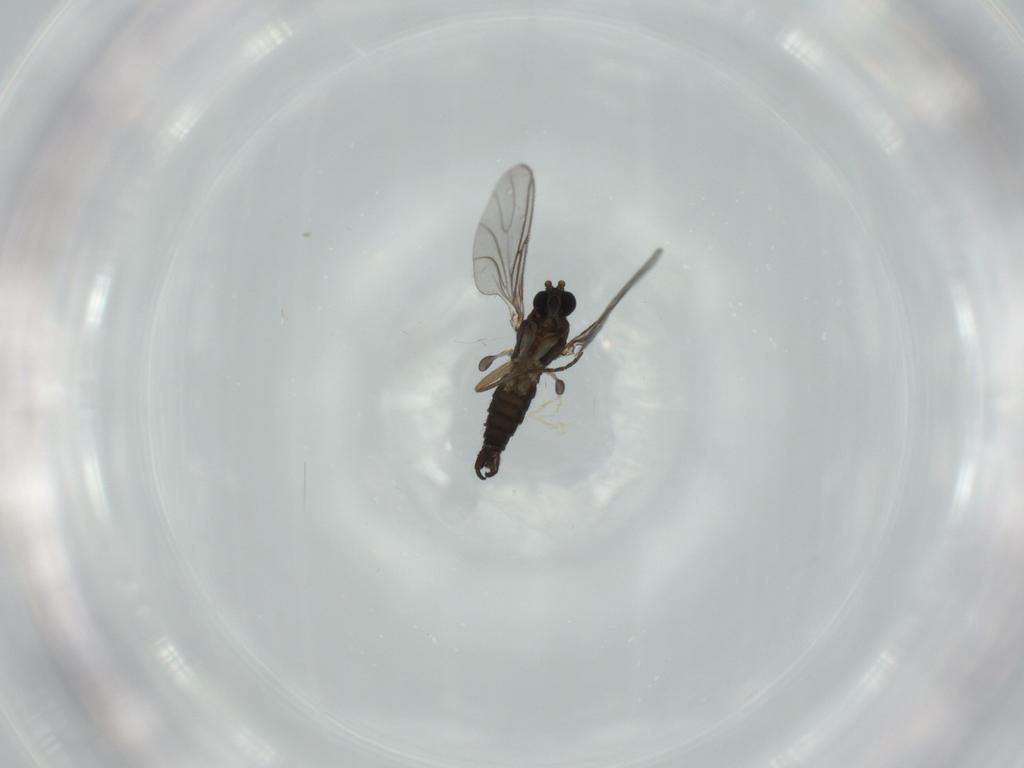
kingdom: Animalia
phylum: Arthropoda
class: Insecta
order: Diptera
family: Sciaridae
